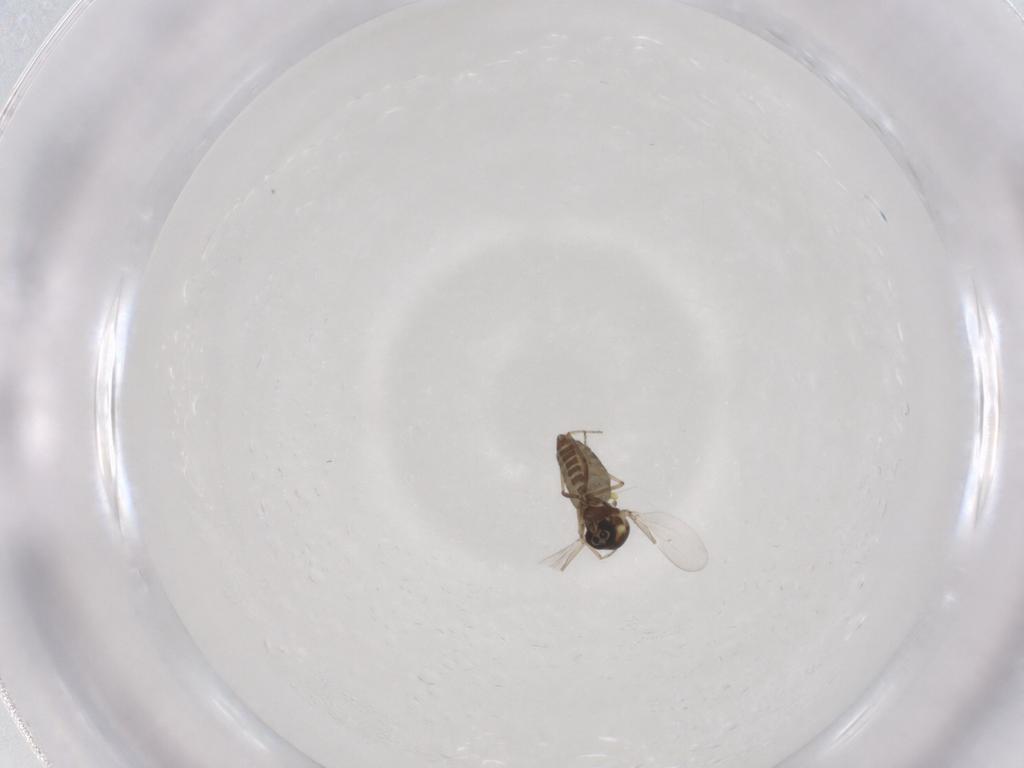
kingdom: Animalia
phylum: Arthropoda
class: Insecta
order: Diptera
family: Ceratopogonidae
